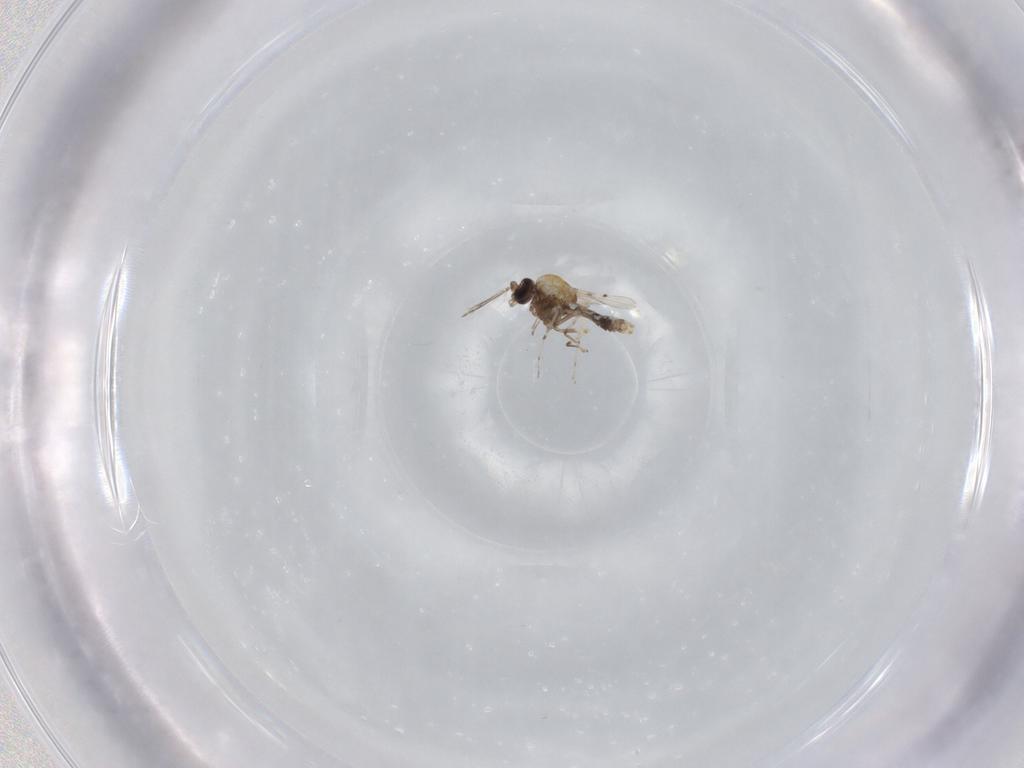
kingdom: Animalia
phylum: Arthropoda
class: Insecta
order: Diptera
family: Ceratopogonidae
